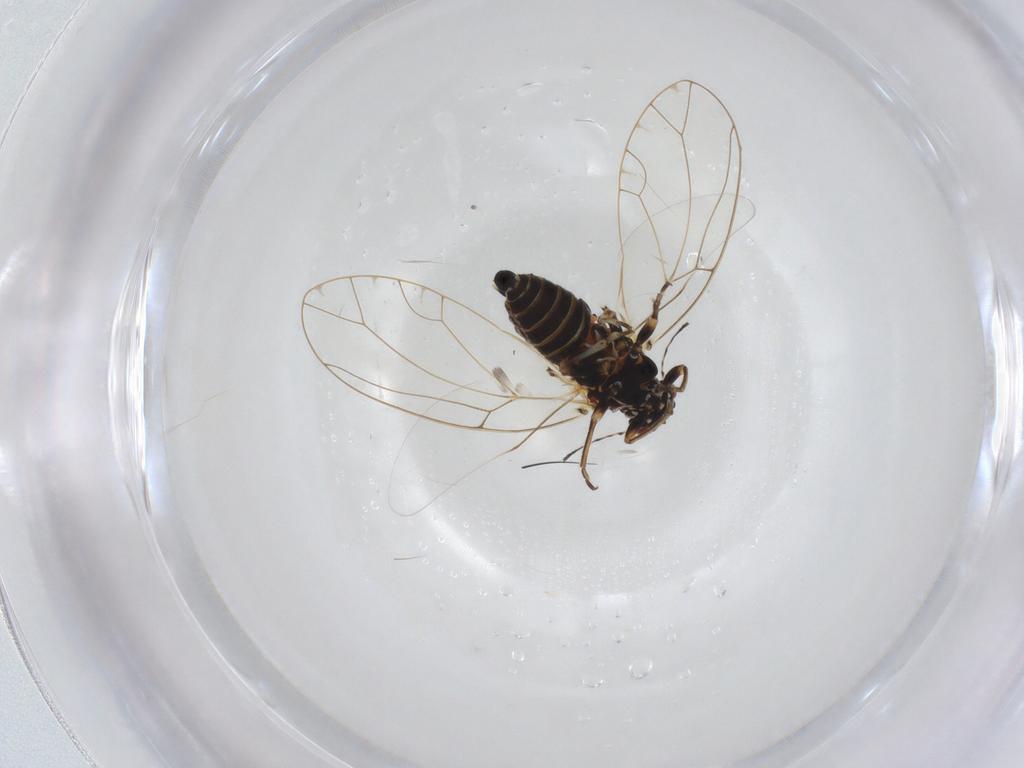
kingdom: Animalia
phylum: Arthropoda
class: Insecta
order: Hemiptera
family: Triozidae
